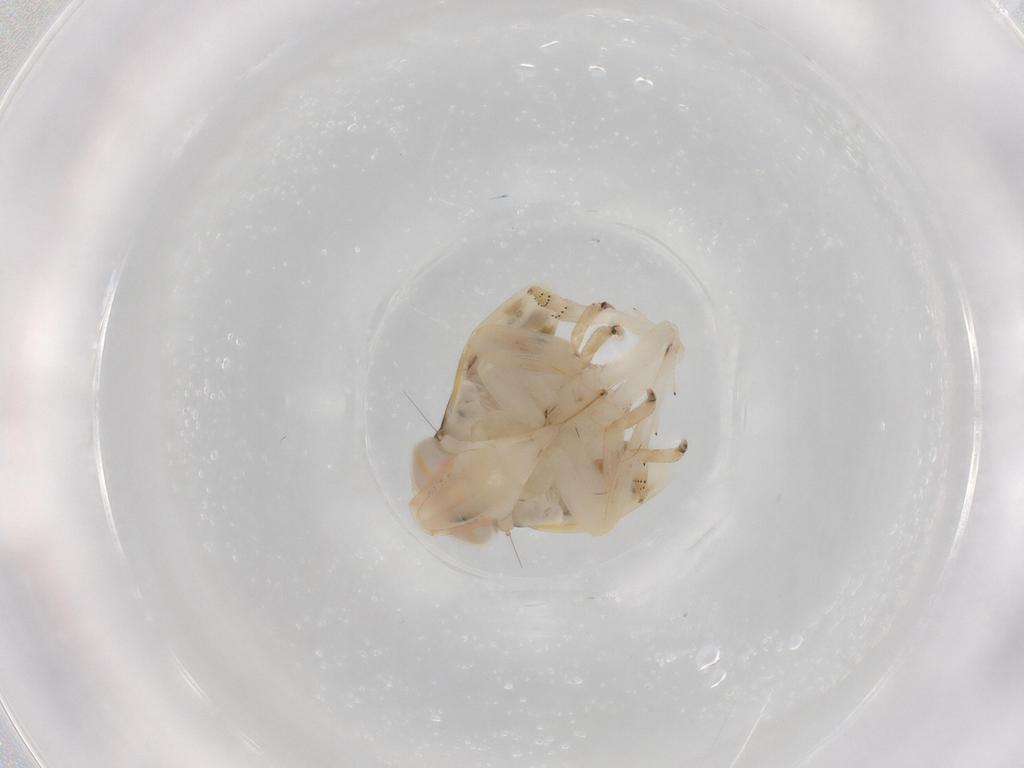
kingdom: Animalia
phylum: Arthropoda
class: Insecta
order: Hemiptera
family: Nogodinidae
